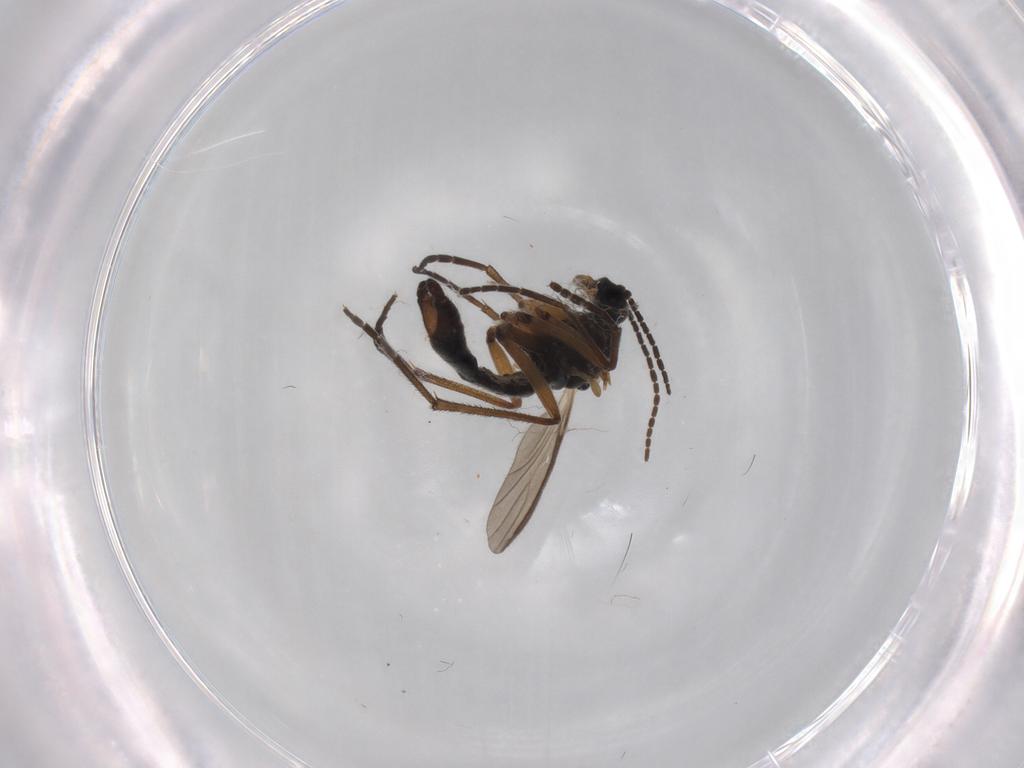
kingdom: Animalia
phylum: Arthropoda
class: Insecta
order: Diptera
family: Sciaridae
